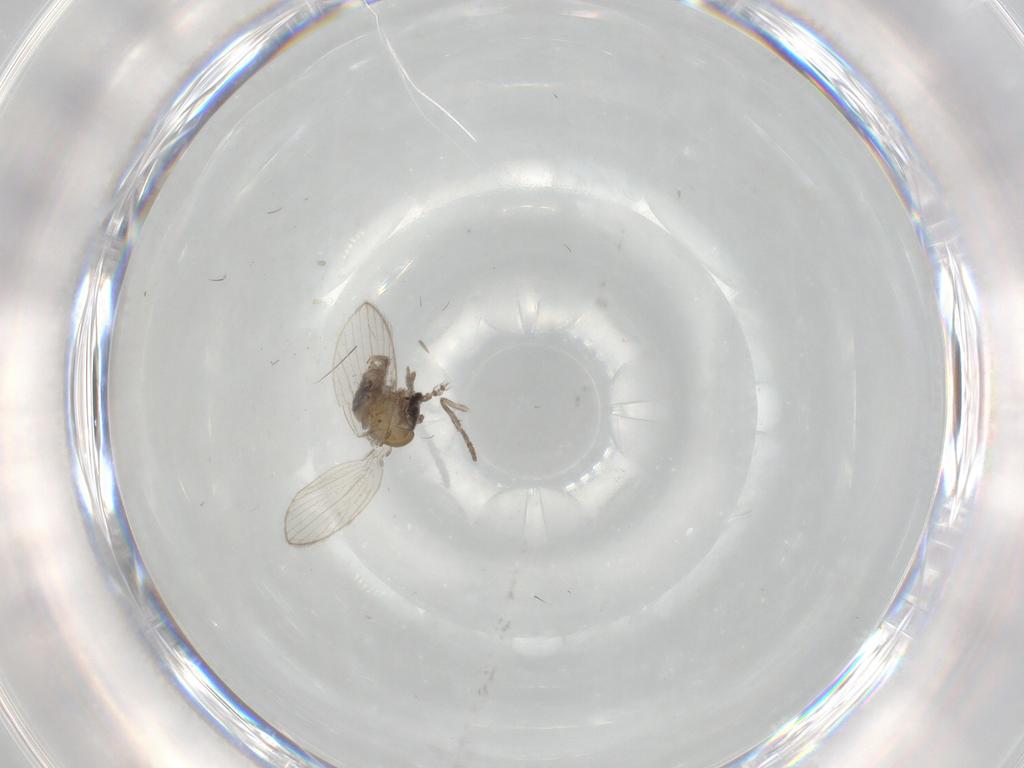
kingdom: Animalia
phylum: Arthropoda
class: Insecta
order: Diptera
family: Psychodidae
